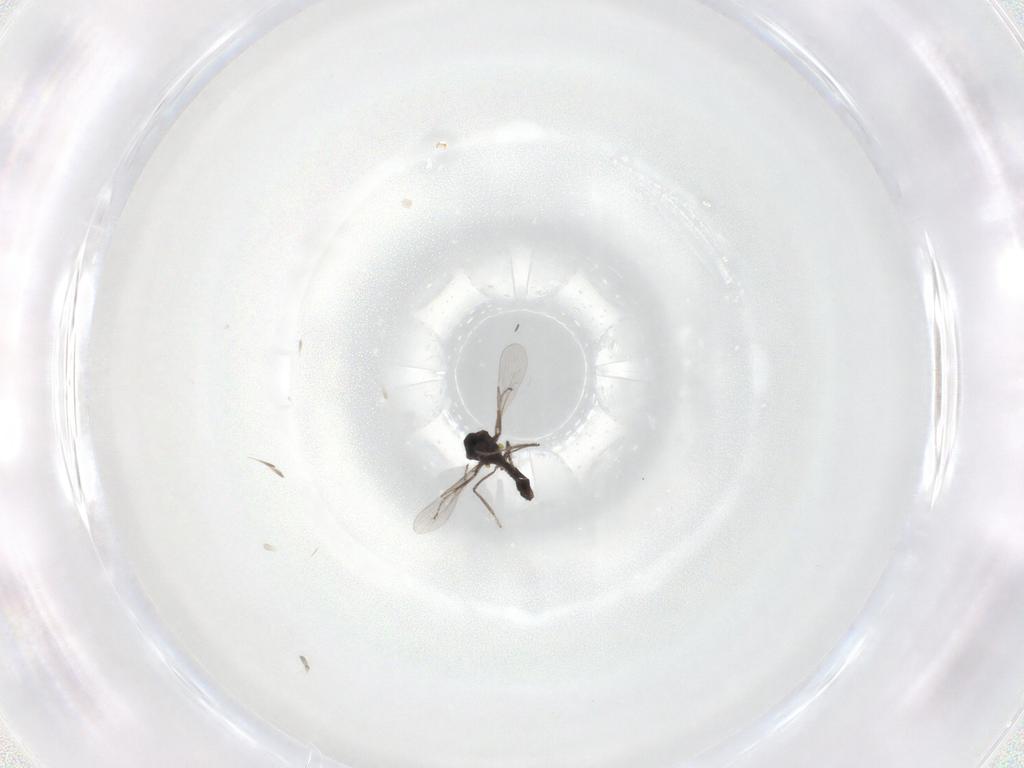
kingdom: Animalia
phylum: Arthropoda
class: Insecta
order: Diptera
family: Ceratopogonidae
